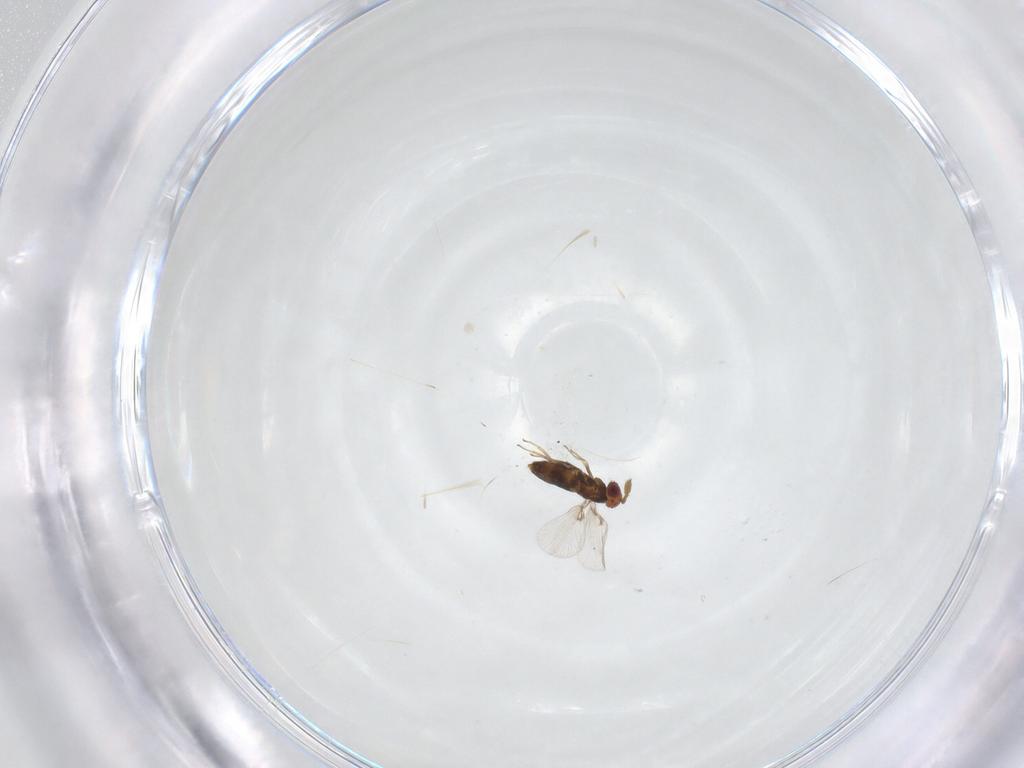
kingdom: Animalia
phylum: Arthropoda
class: Insecta
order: Hymenoptera
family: Agaonidae
